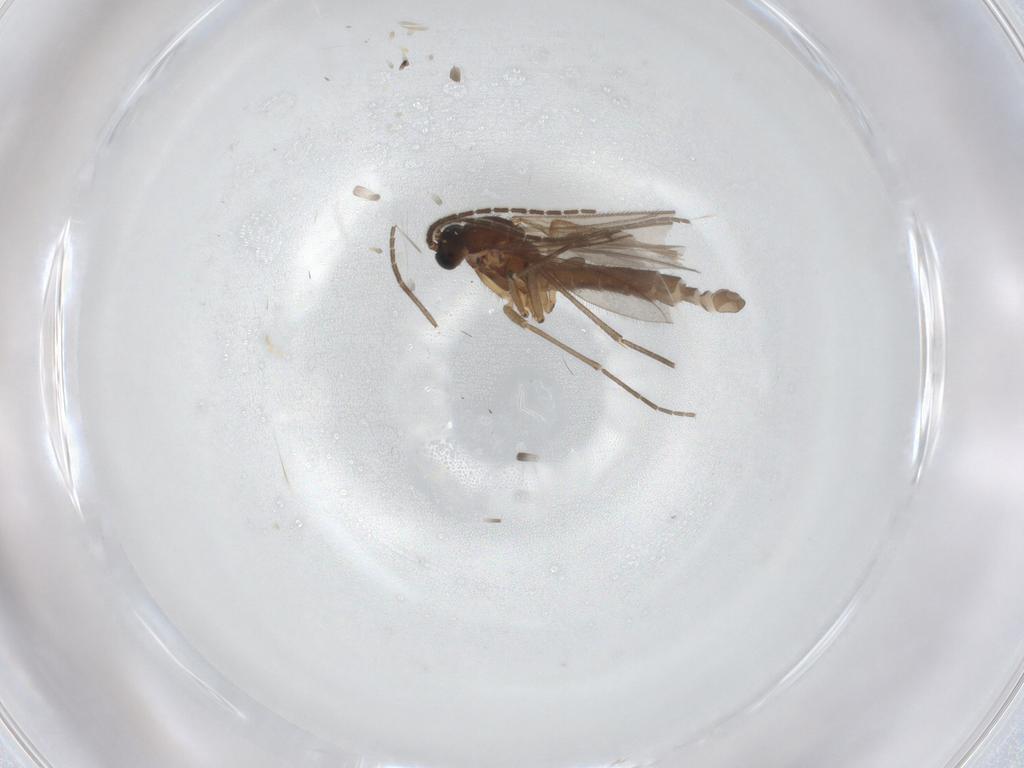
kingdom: Animalia
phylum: Arthropoda
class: Insecta
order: Diptera
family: Sciaridae
